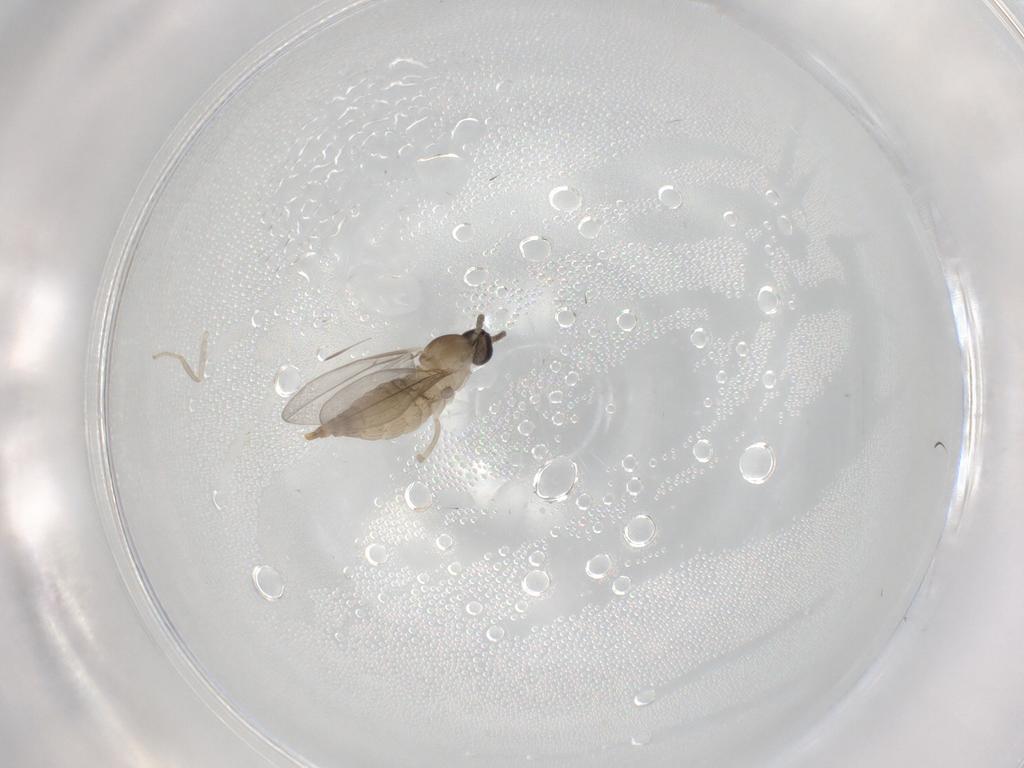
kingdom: Animalia
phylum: Arthropoda
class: Insecta
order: Diptera
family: Cecidomyiidae
